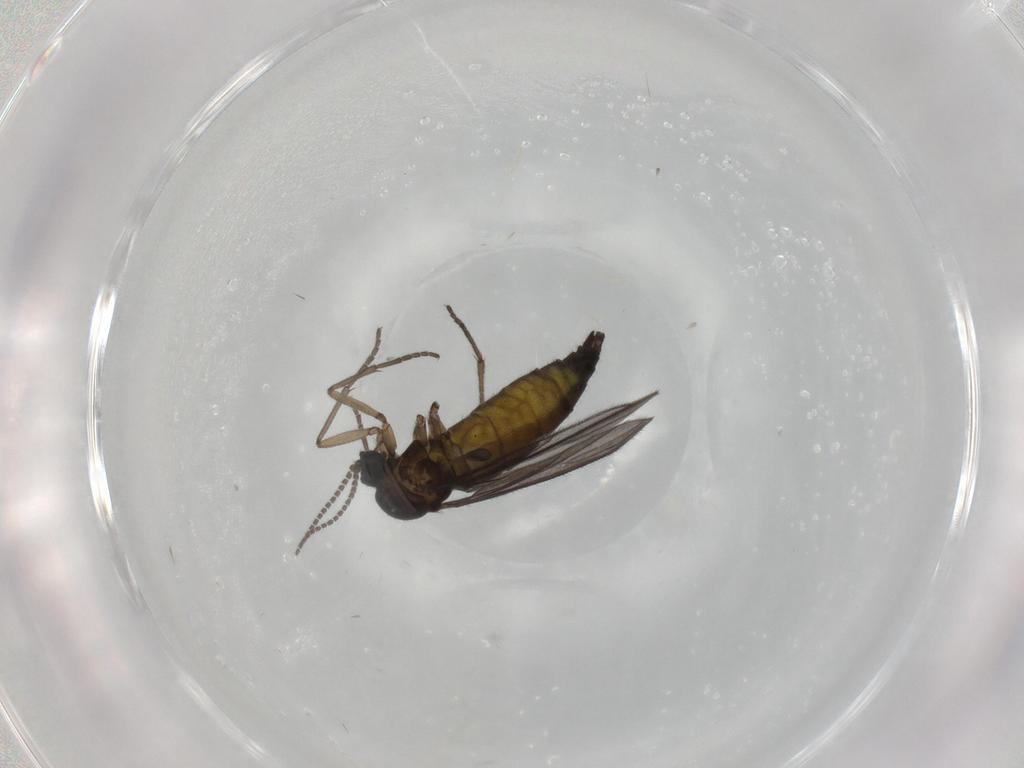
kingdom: Animalia
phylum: Arthropoda
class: Insecta
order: Diptera
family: Sciaridae
